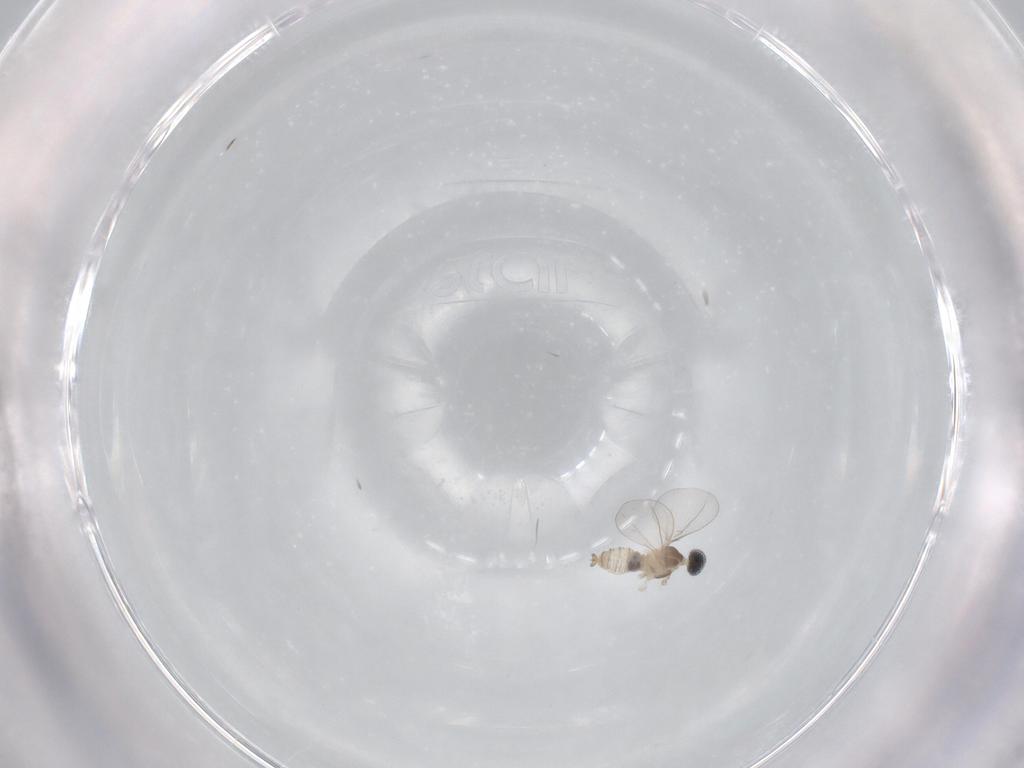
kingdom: Animalia
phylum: Arthropoda
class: Insecta
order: Diptera
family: Cecidomyiidae
